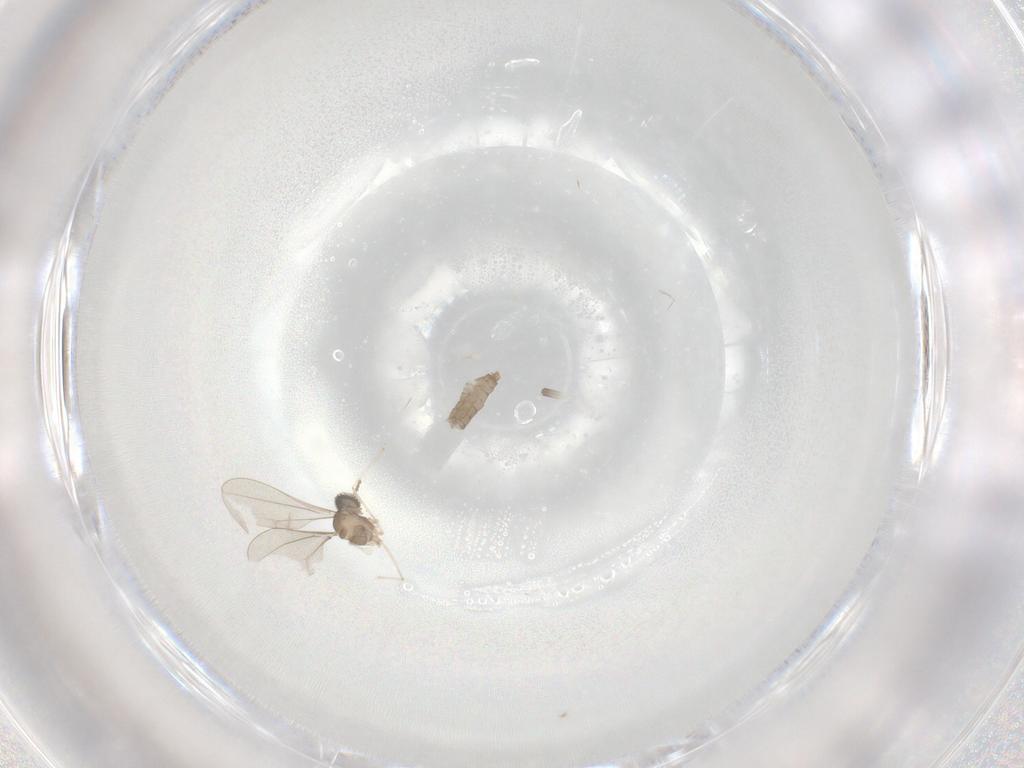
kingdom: Animalia
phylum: Arthropoda
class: Insecta
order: Diptera
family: Cecidomyiidae
